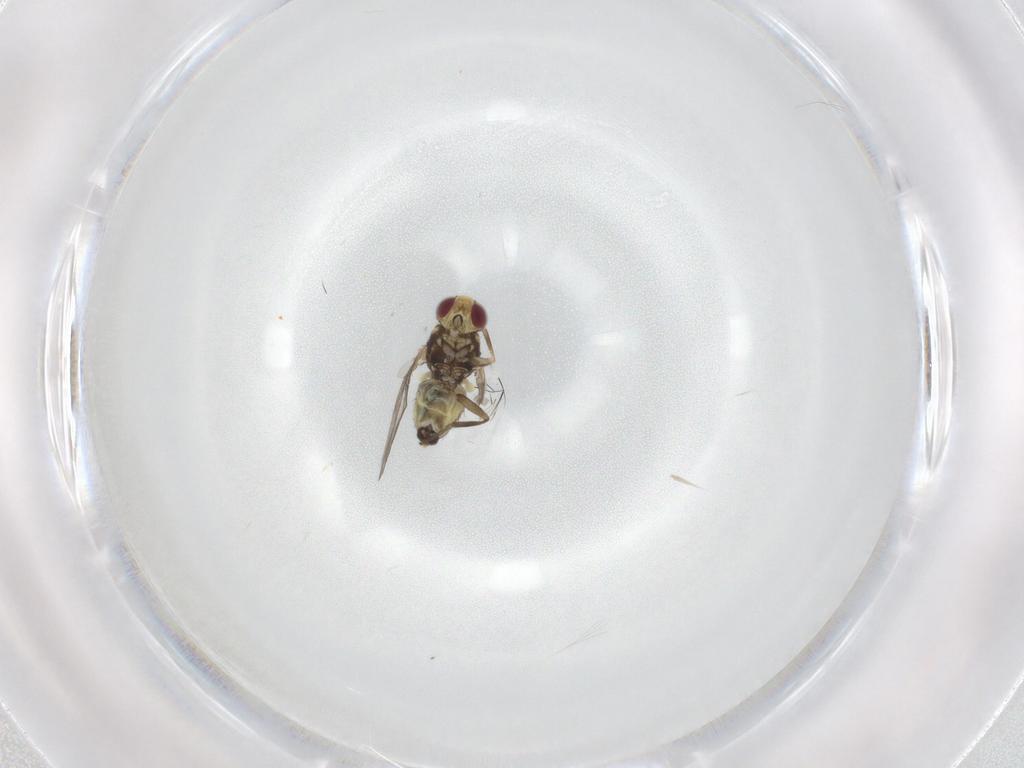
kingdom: Animalia
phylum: Arthropoda
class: Insecta
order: Diptera
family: Agromyzidae
